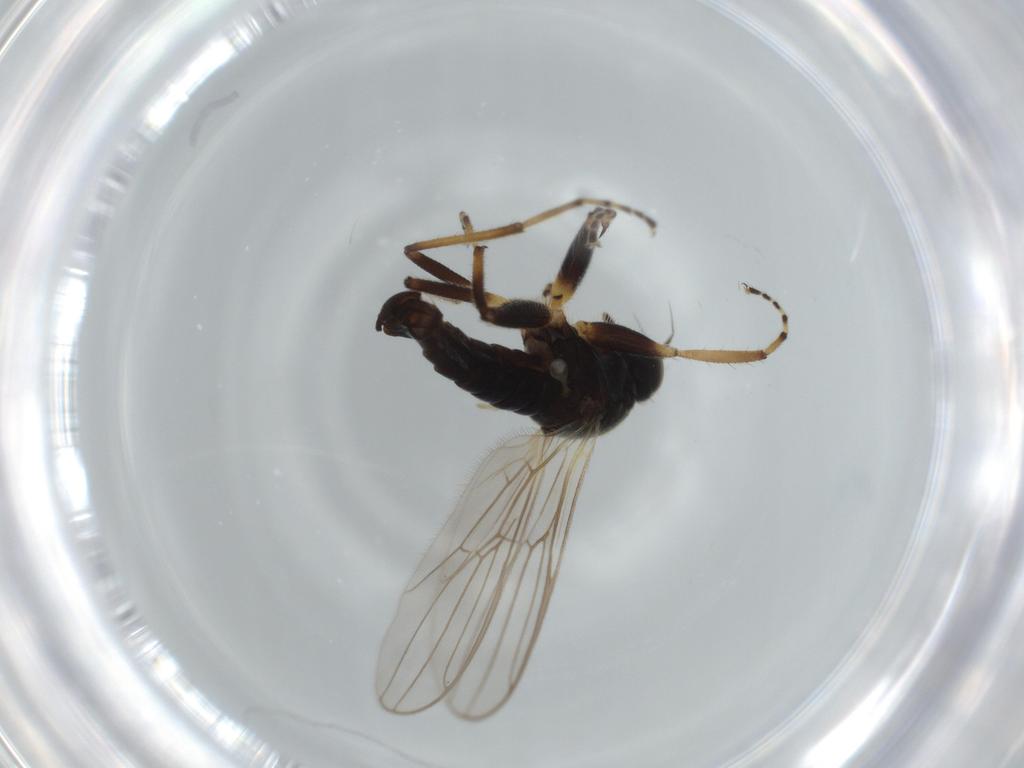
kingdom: Animalia
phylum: Arthropoda
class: Insecta
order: Diptera
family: Hybotidae
